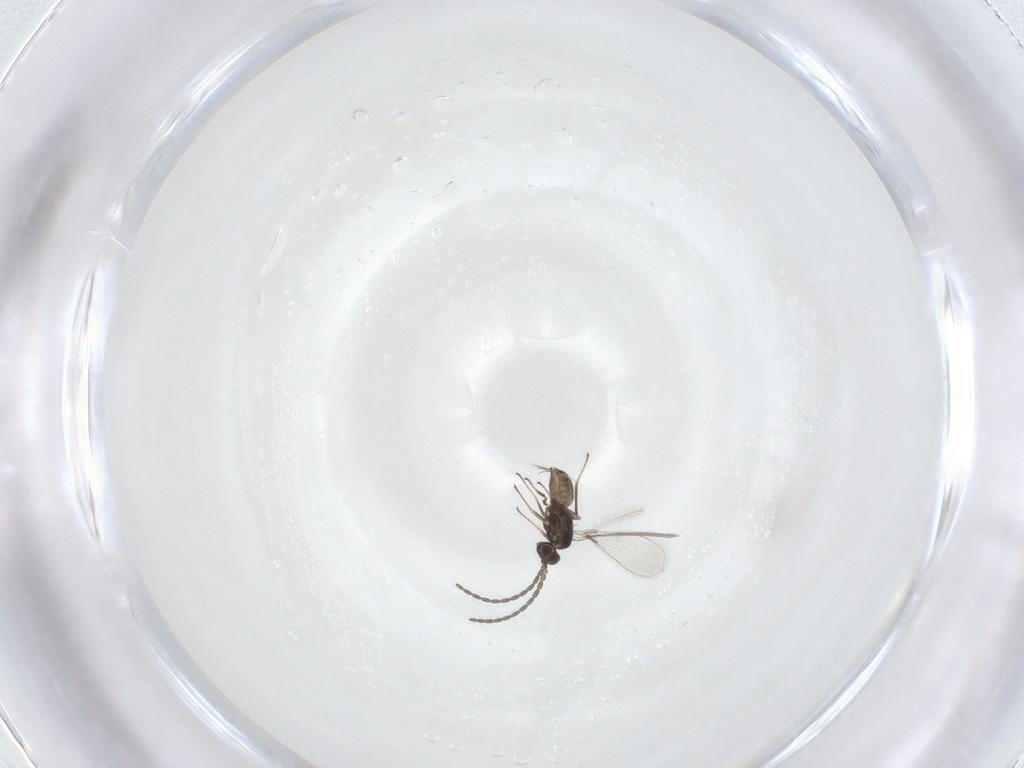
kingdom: Animalia
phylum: Arthropoda
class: Insecta
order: Hymenoptera
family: Mymaridae
